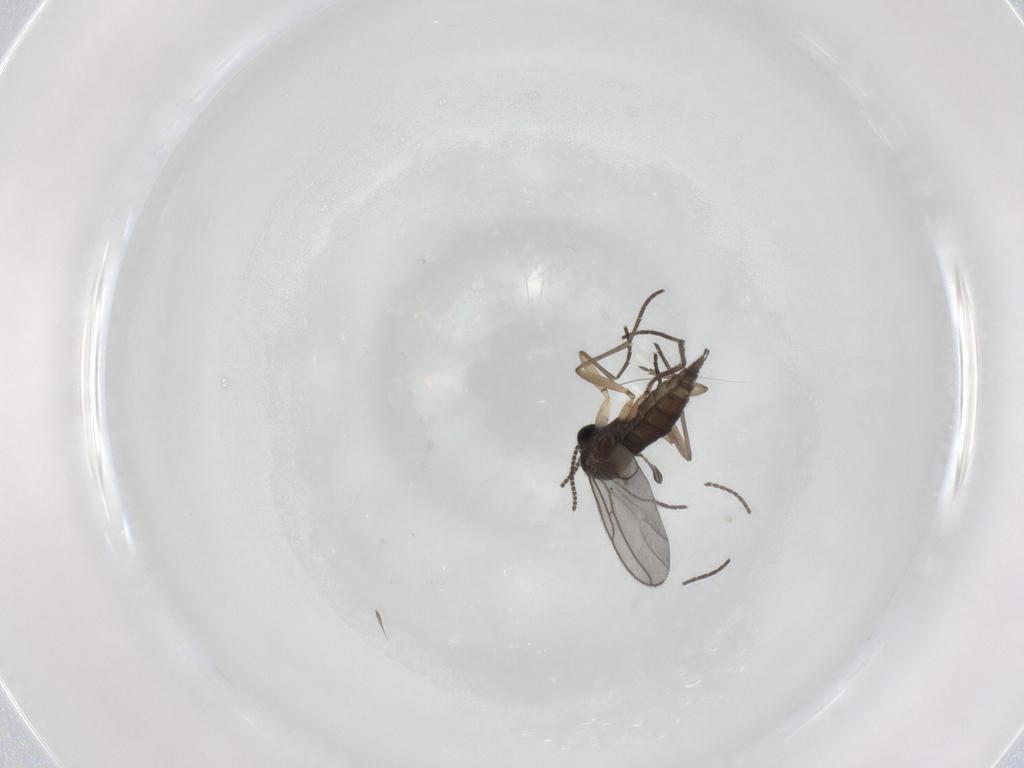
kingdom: Animalia
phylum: Arthropoda
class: Insecta
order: Diptera
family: Sciaridae
